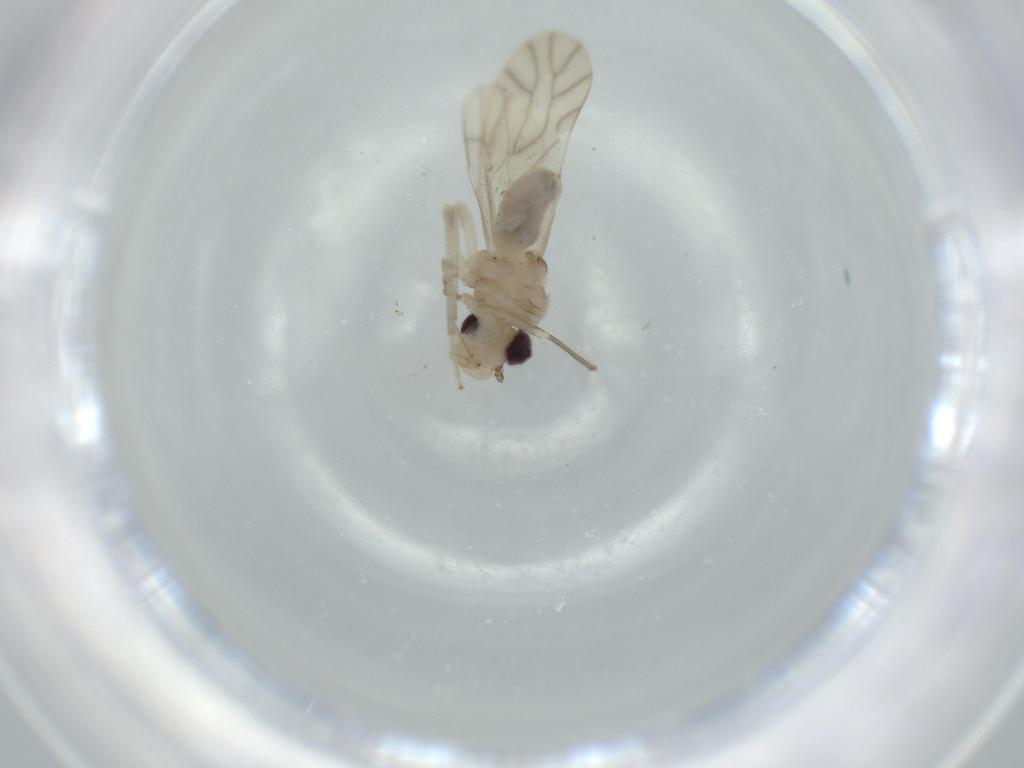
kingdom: Animalia
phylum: Arthropoda
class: Insecta
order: Psocodea
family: Caeciliusidae
